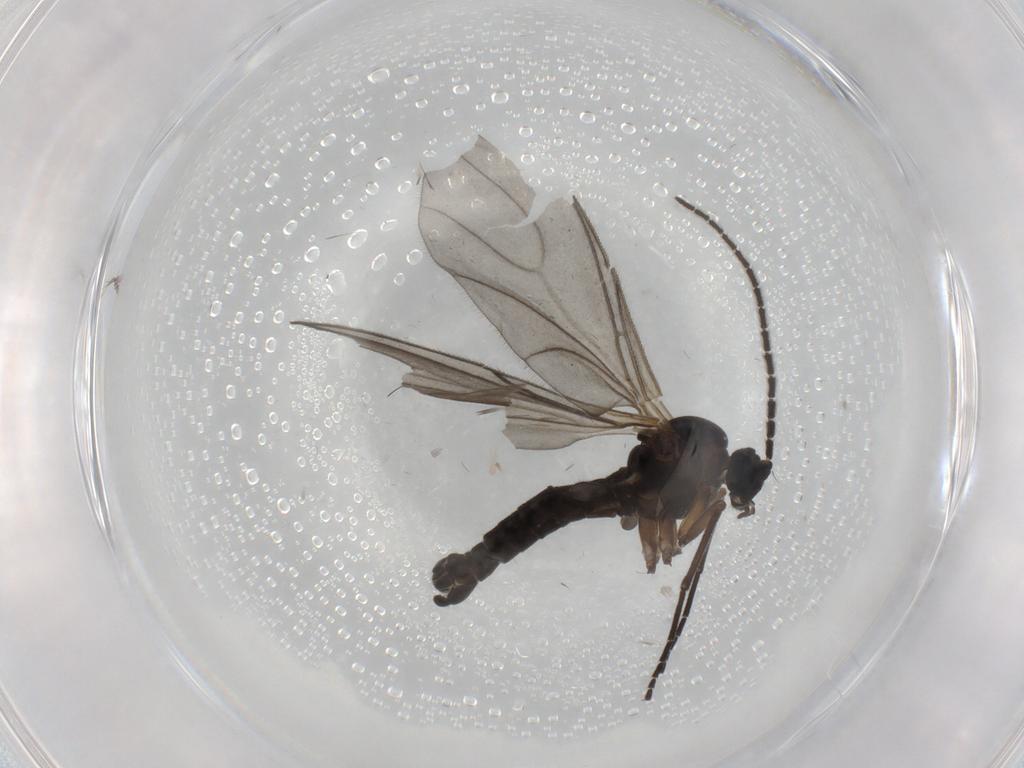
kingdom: Animalia
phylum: Arthropoda
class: Insecta
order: Diptera
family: Sciaridae
